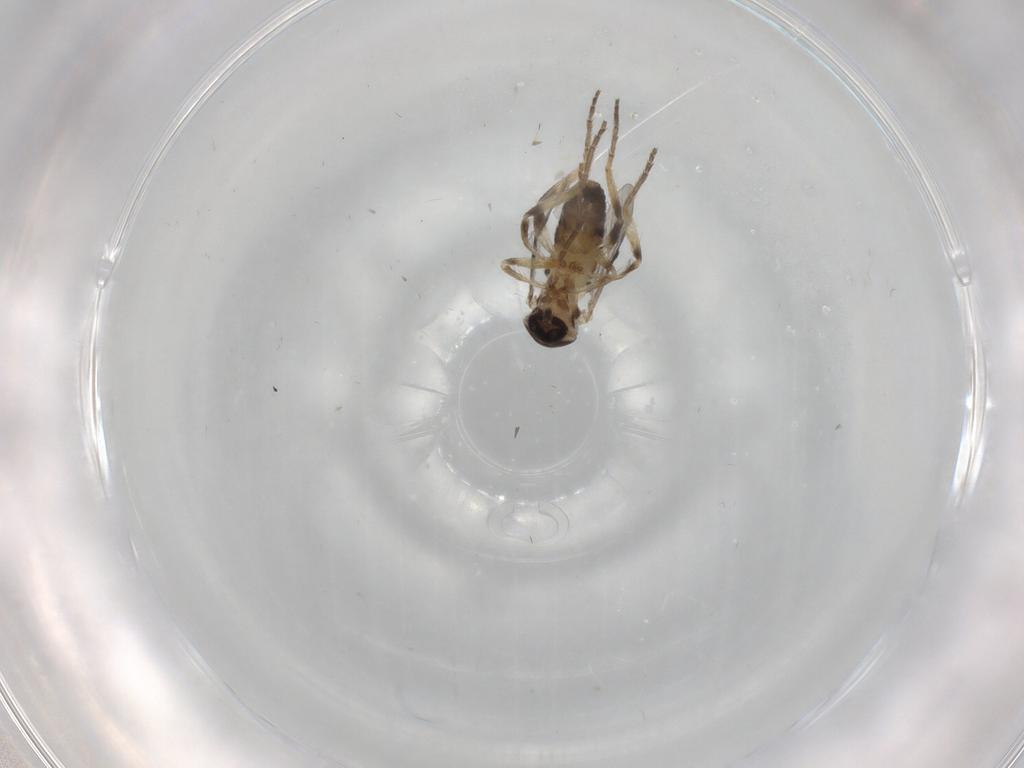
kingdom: Animalia
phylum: Arthropoda
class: Insecta
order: Diptera
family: Ceratopogonidae
